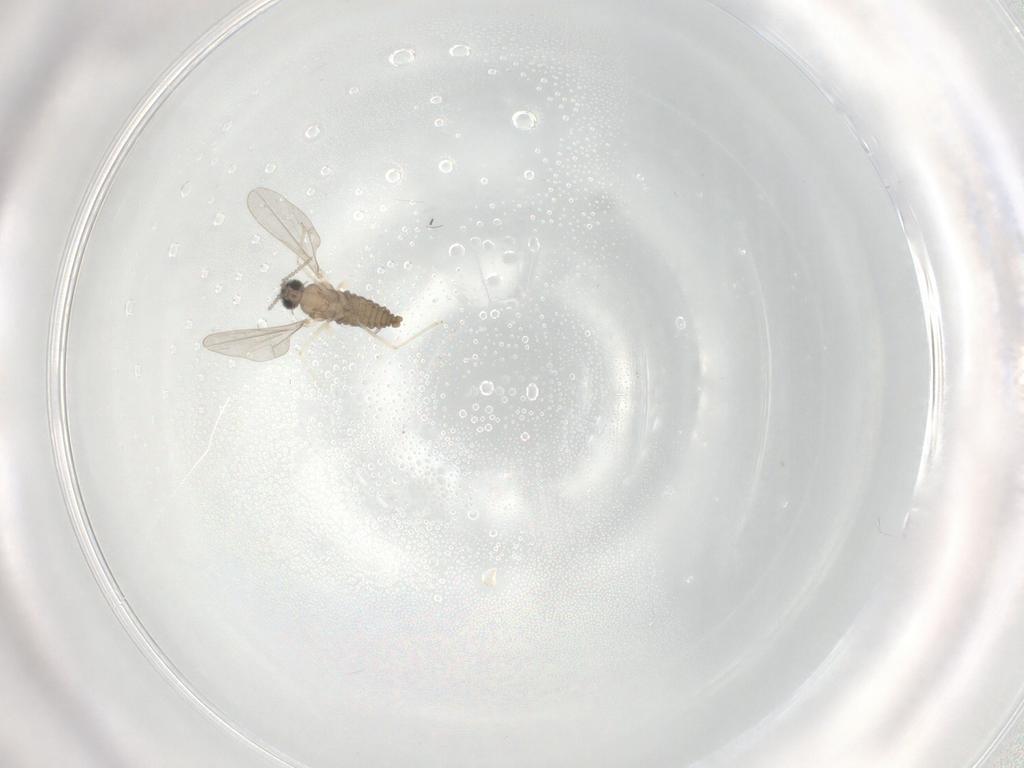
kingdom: Animalia
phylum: Arthropoda
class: Insecta
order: Diptera
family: Cecidomyiidae
